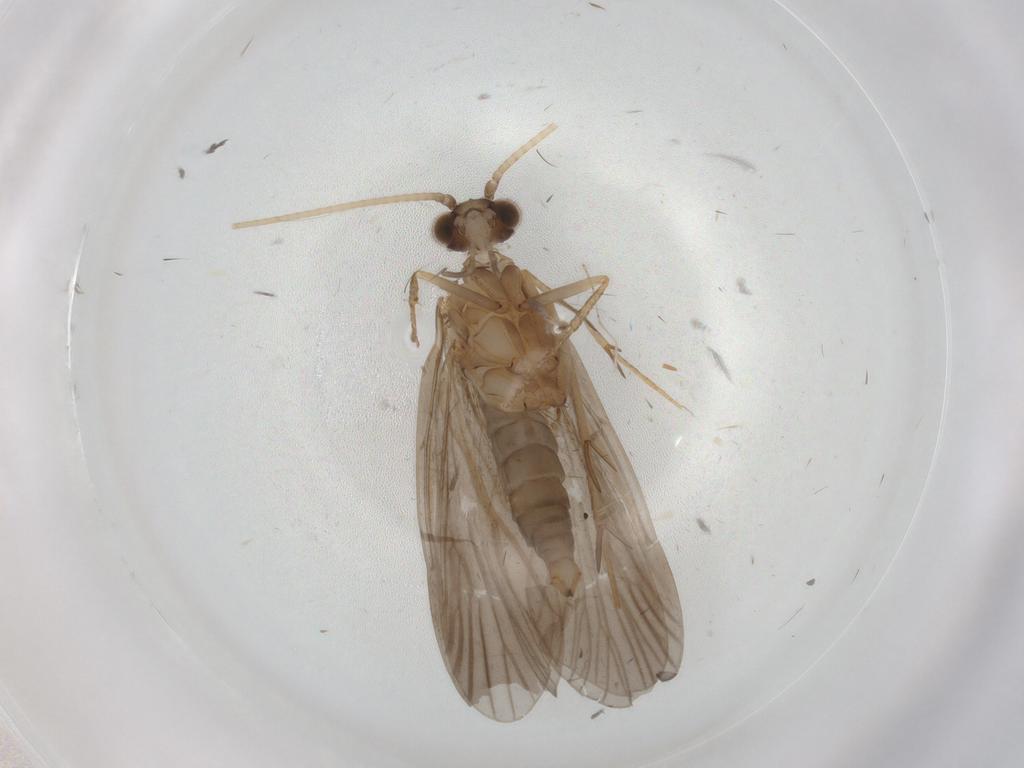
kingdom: Animalia
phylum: Arthropoda
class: Insecta
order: Trichoptera
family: Philopotamidae
